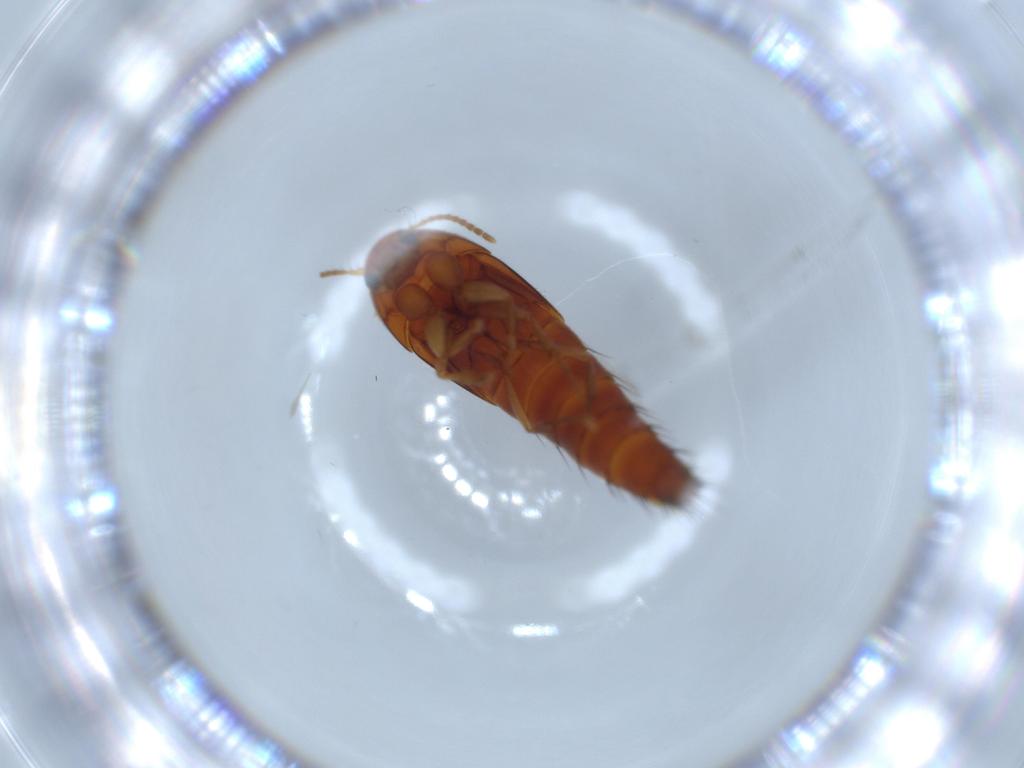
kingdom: Animalia
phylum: Arthropoda
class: Insecta
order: Coleoptera
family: Staphylinidae
